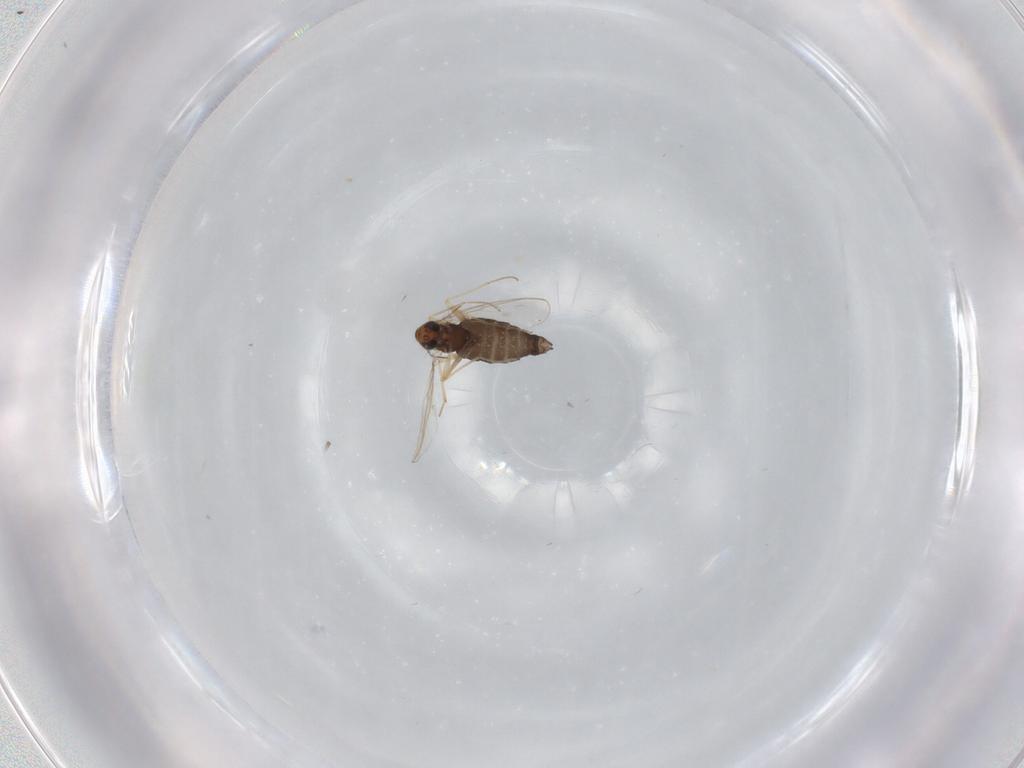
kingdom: Animalia
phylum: Arthropoda
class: Insecta
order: Diptera
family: Chironomidae
